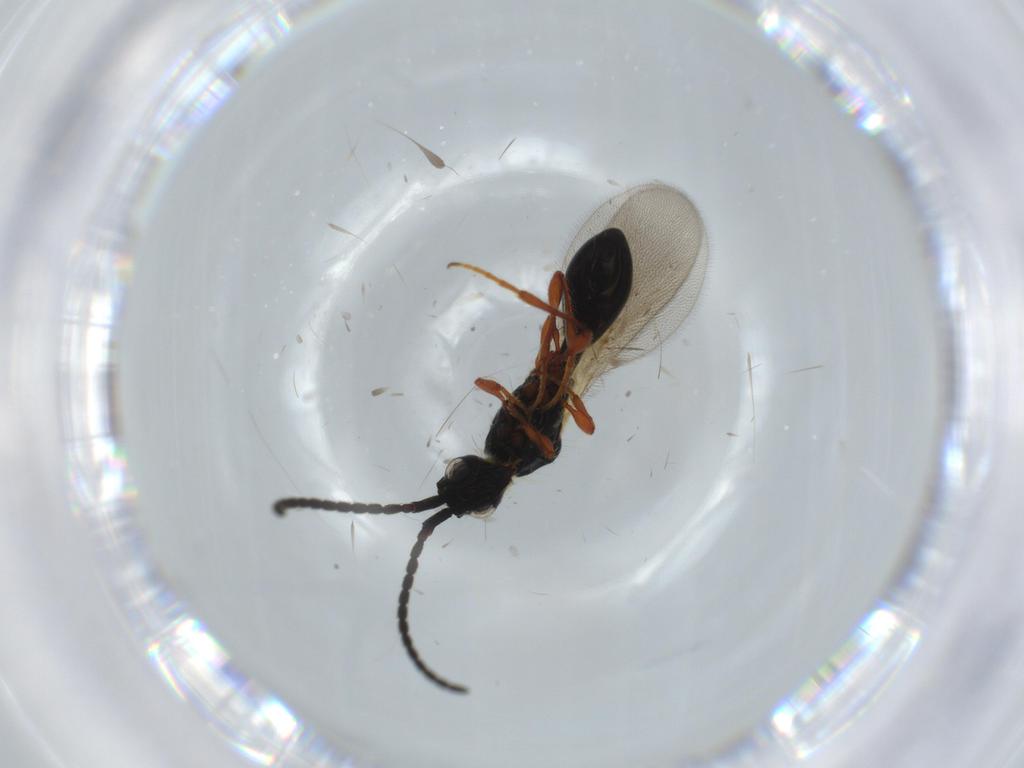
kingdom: Animalia
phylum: Arthropoda
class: Insecta
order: Hymenoptera
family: Diapriidae
